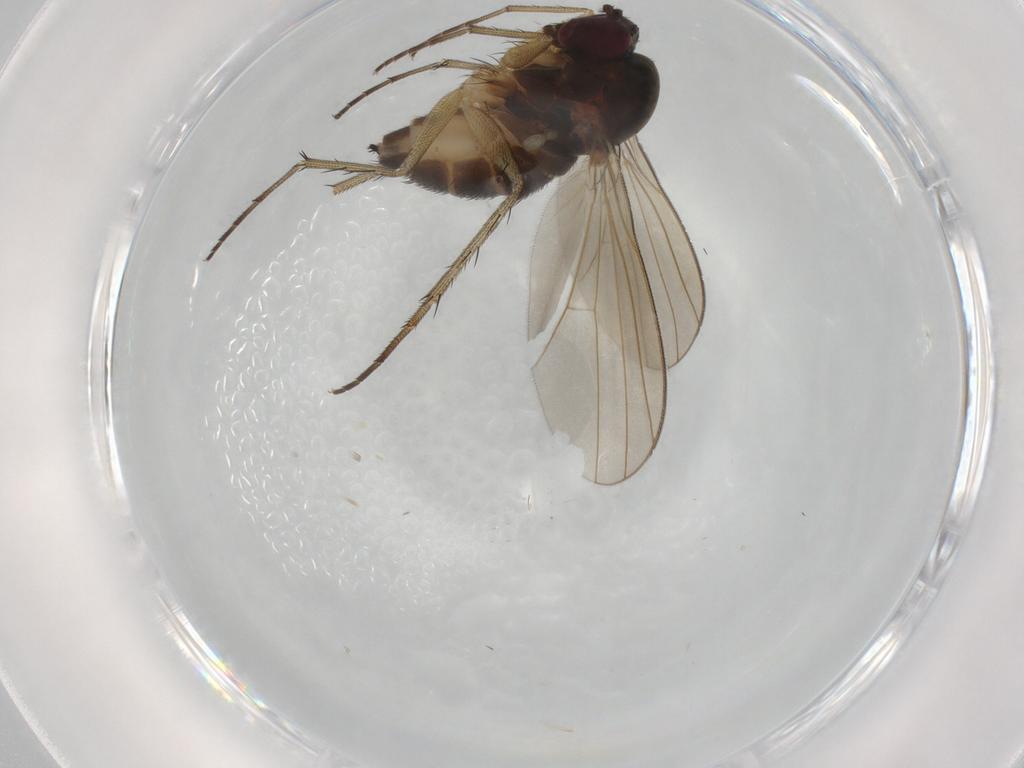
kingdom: Animalia
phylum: Arthropoda
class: Insecta
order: Diptera
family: Dolichopodidae
